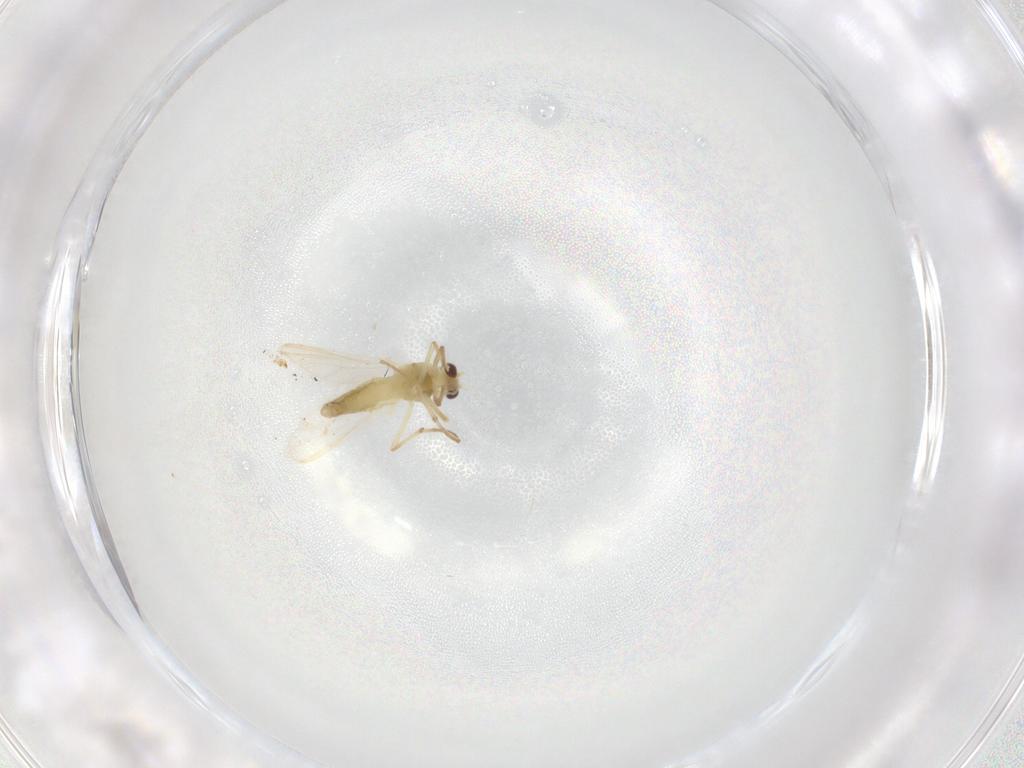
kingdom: Animalia
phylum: Arthropoda
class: Insecta
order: Diptera
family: Chironomidae
